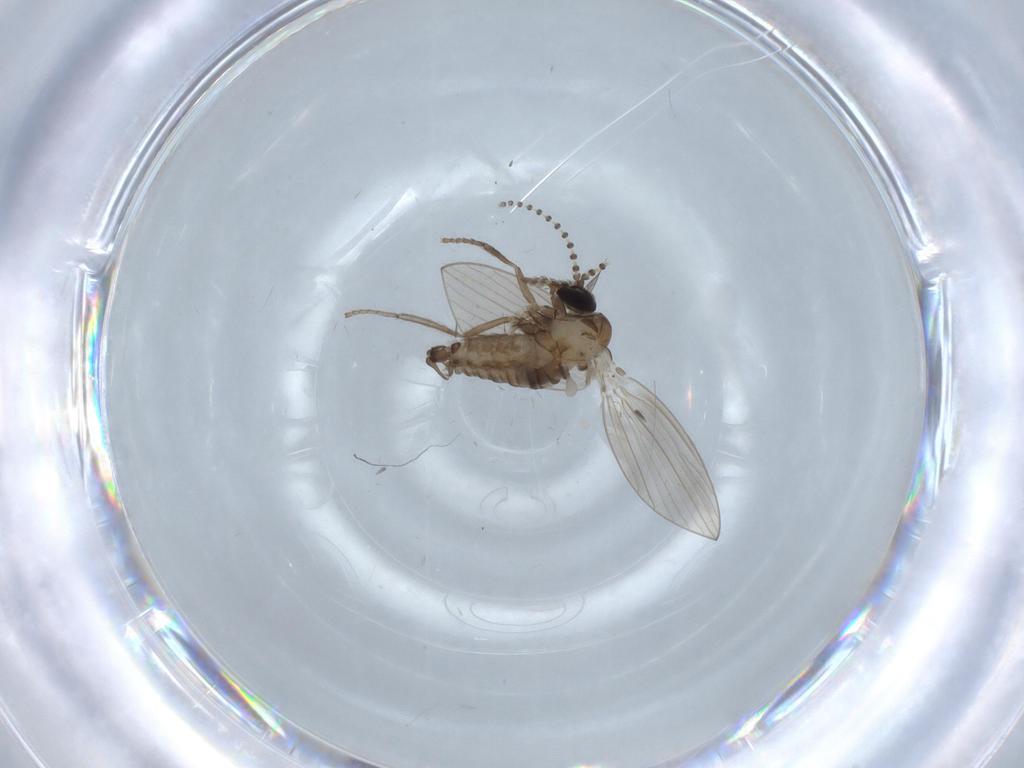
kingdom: Animalia
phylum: Arthropoda
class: Insecta
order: Diptera
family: Psychodidae
